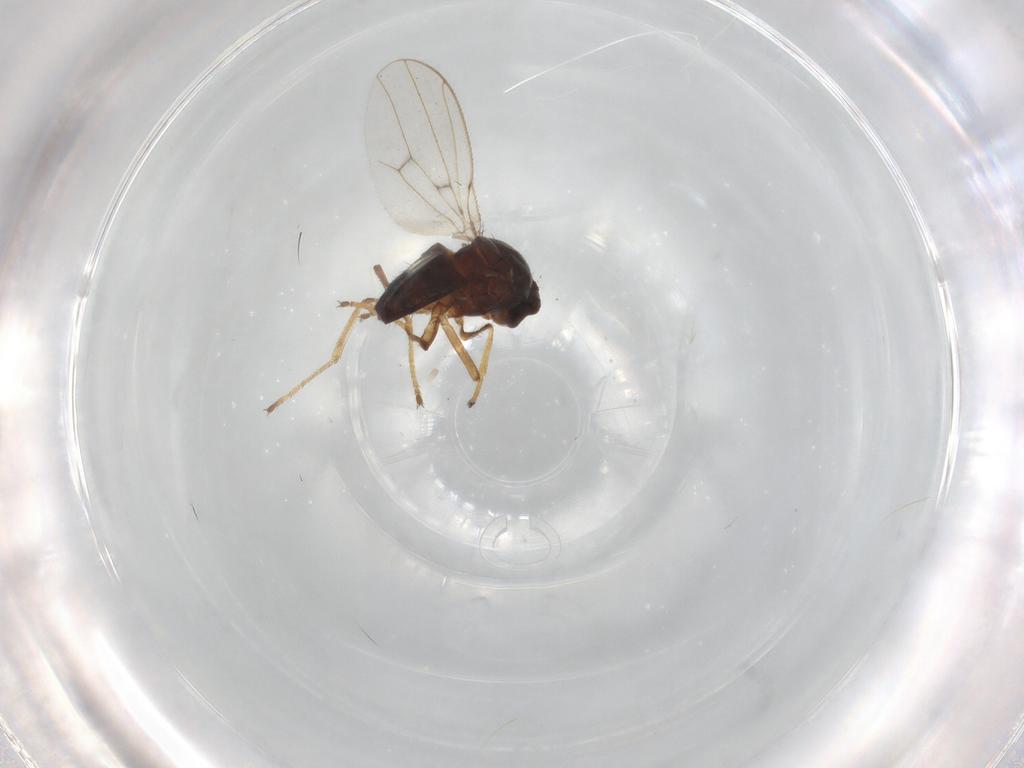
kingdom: Animalia
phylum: Arthropoda
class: Insecta
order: Diptera
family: Ephydridae
